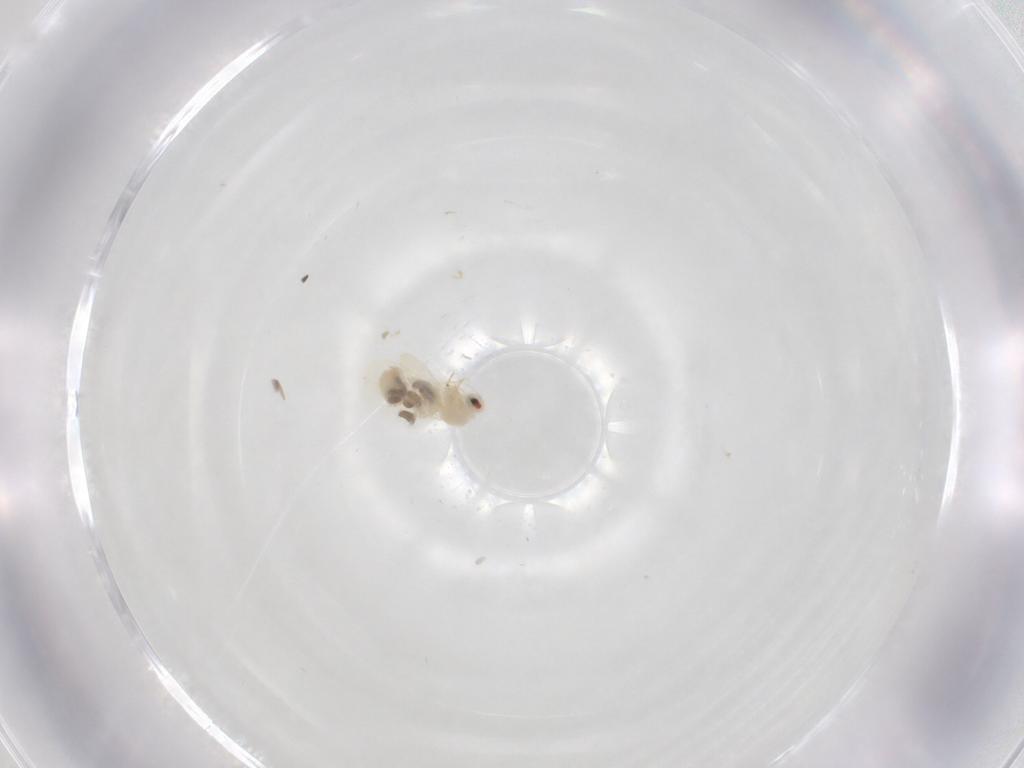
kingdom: Animalia
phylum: Arthropoda
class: Insecta
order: Hemiptera
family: Aleyrodidae
